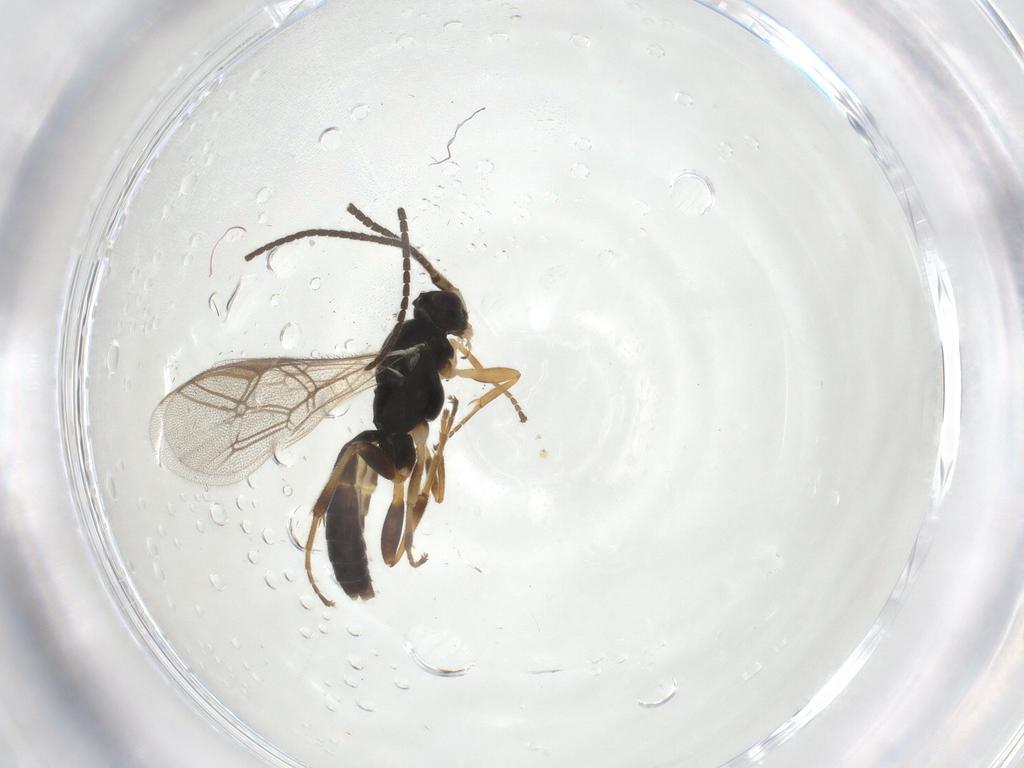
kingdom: Animalia
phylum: Arthropoda
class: Insecta
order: Hymenoptera
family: Ichneumonidae
